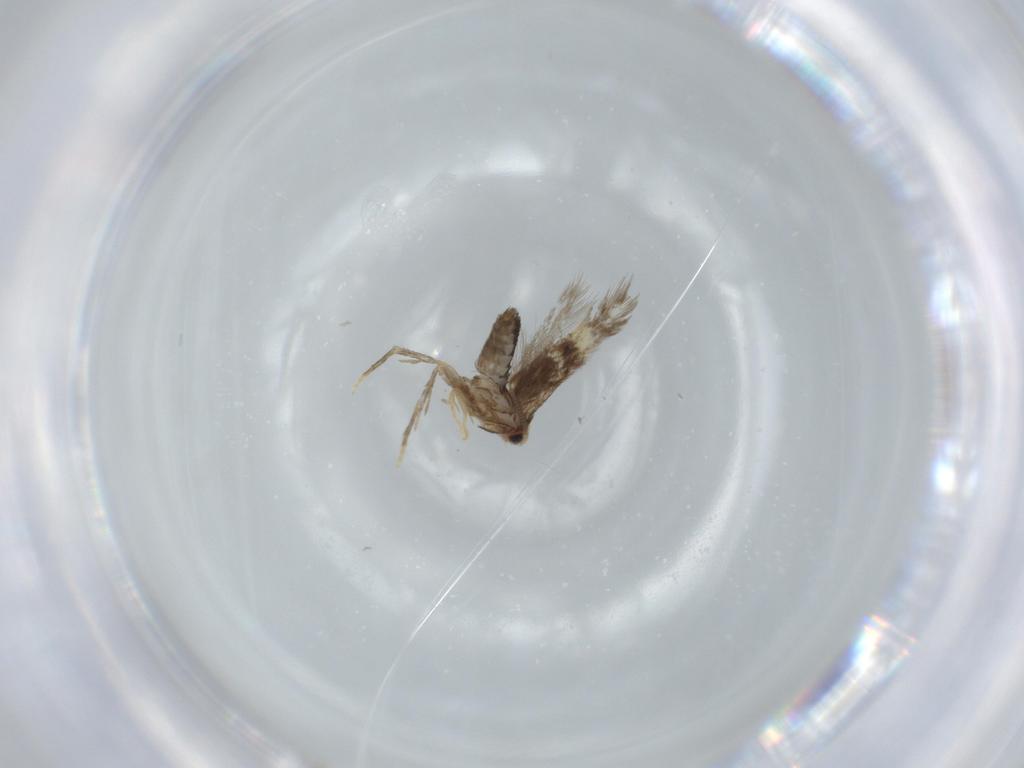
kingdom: Animalia
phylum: Arthropoda
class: Insecta
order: Lepidoptera
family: Nepticulidae
